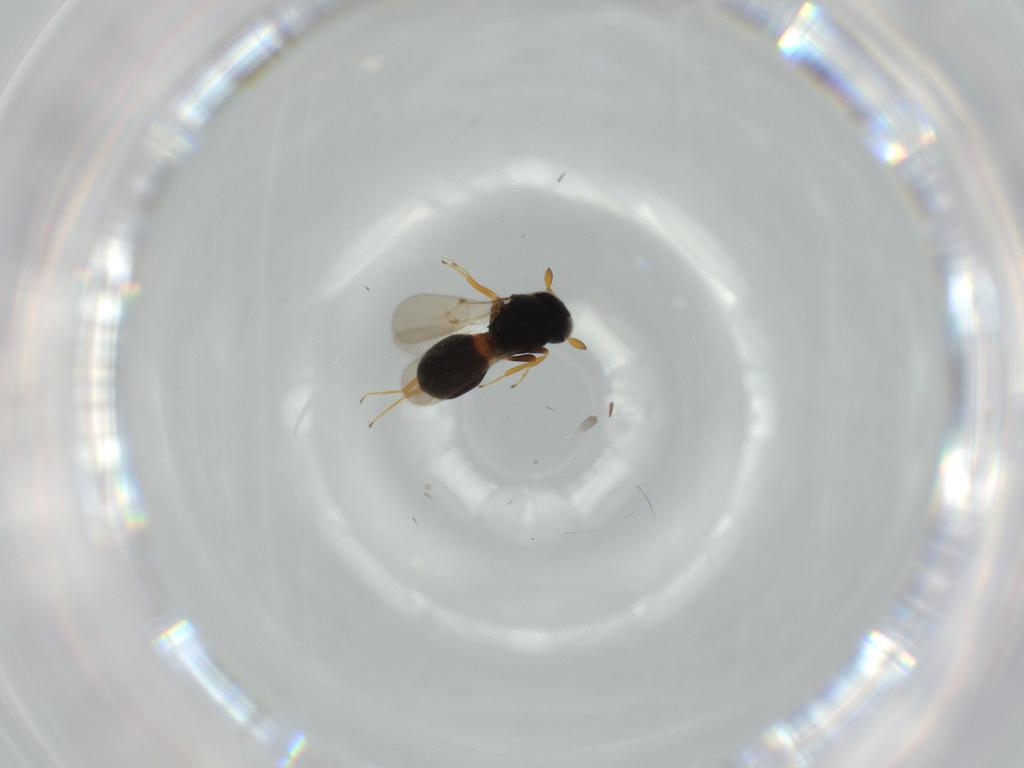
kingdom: Animalia
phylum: Arthropoda
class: Insecta
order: Hymenoptera
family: Scelionidae
